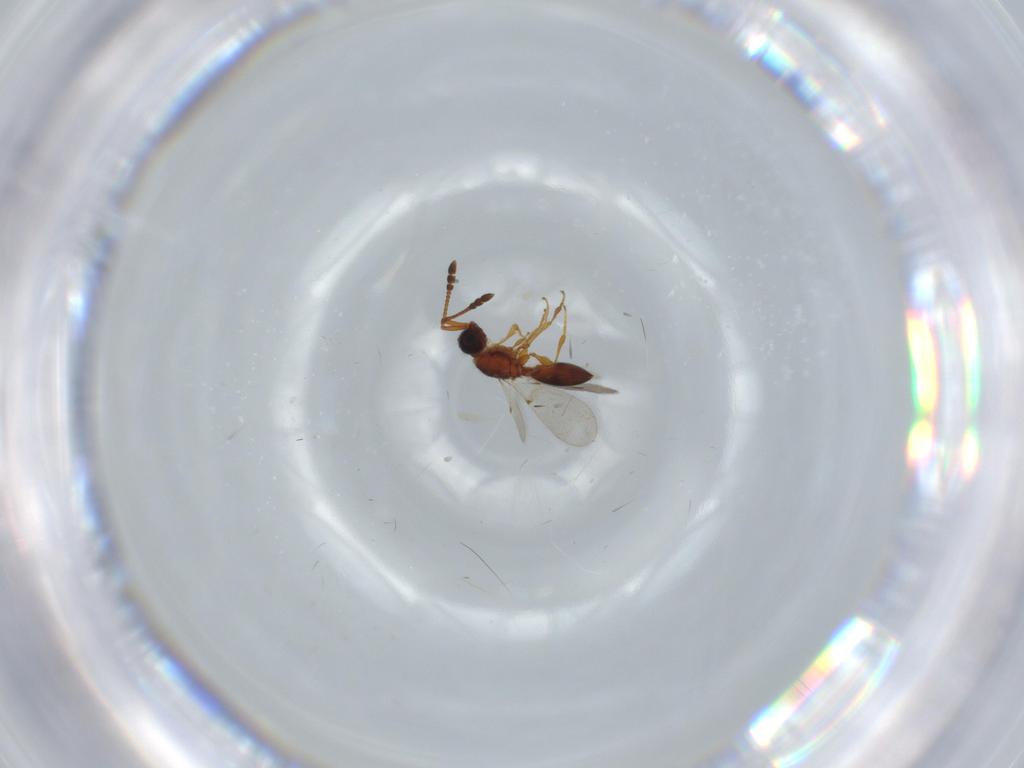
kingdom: Animalia
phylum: Arthropoda
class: Insecta
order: Hymenoptera
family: Diapriidae
